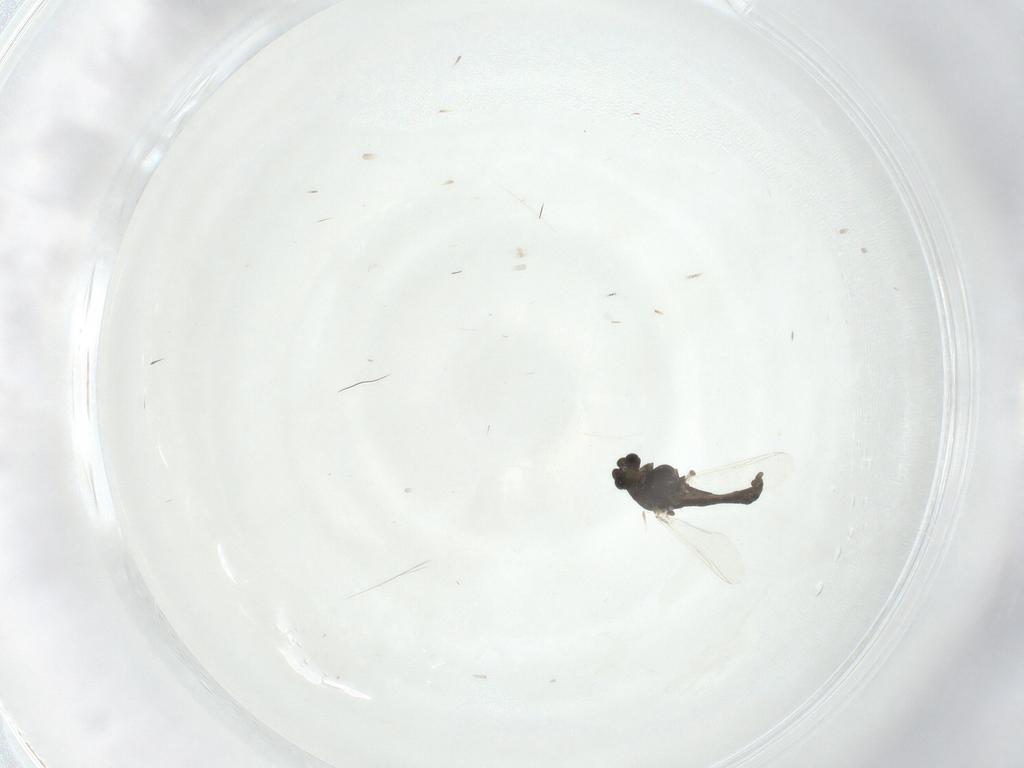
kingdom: Animalia
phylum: Arthropoda
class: Insecta
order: Diptera
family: Chironomidae
